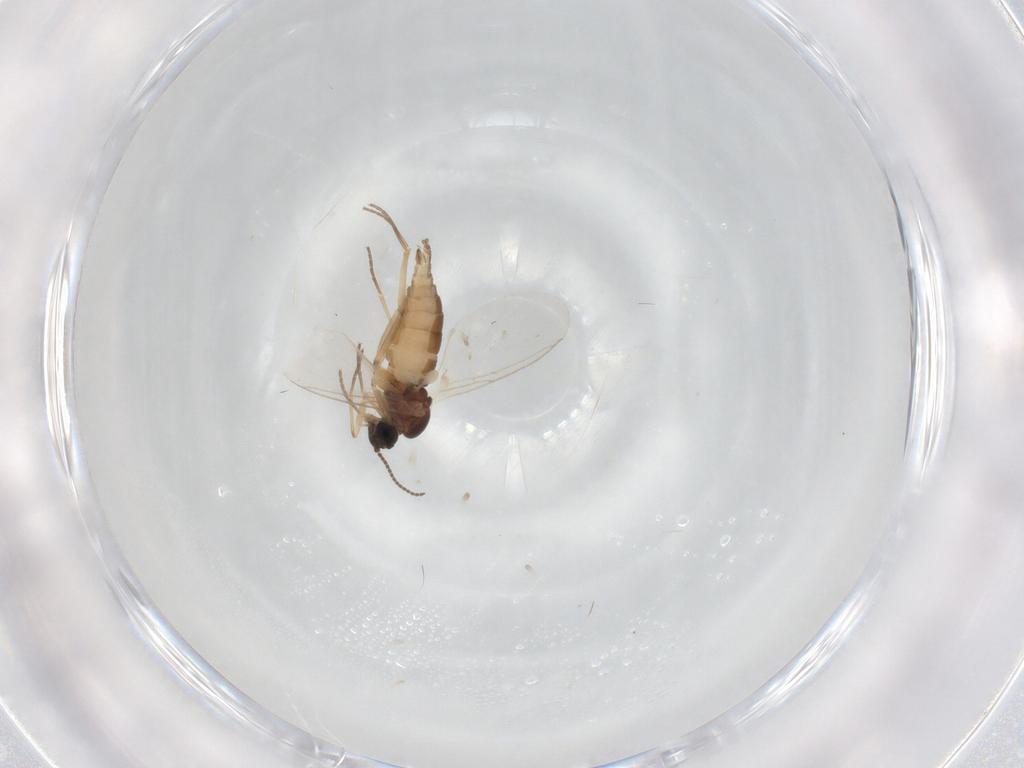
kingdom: Animalia
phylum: Arthropoda
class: Insecta
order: Diptera
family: Sciaridae
